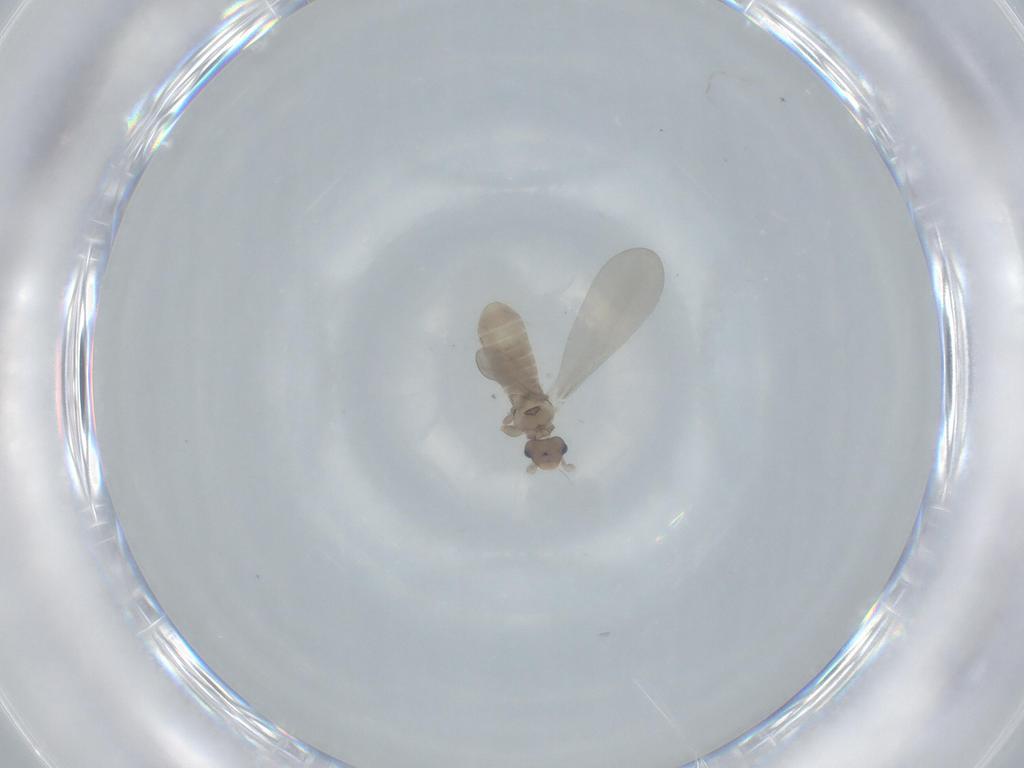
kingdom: Animalia
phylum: Arthropoda
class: Insecta
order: Psocodea
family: Liposcelididae
